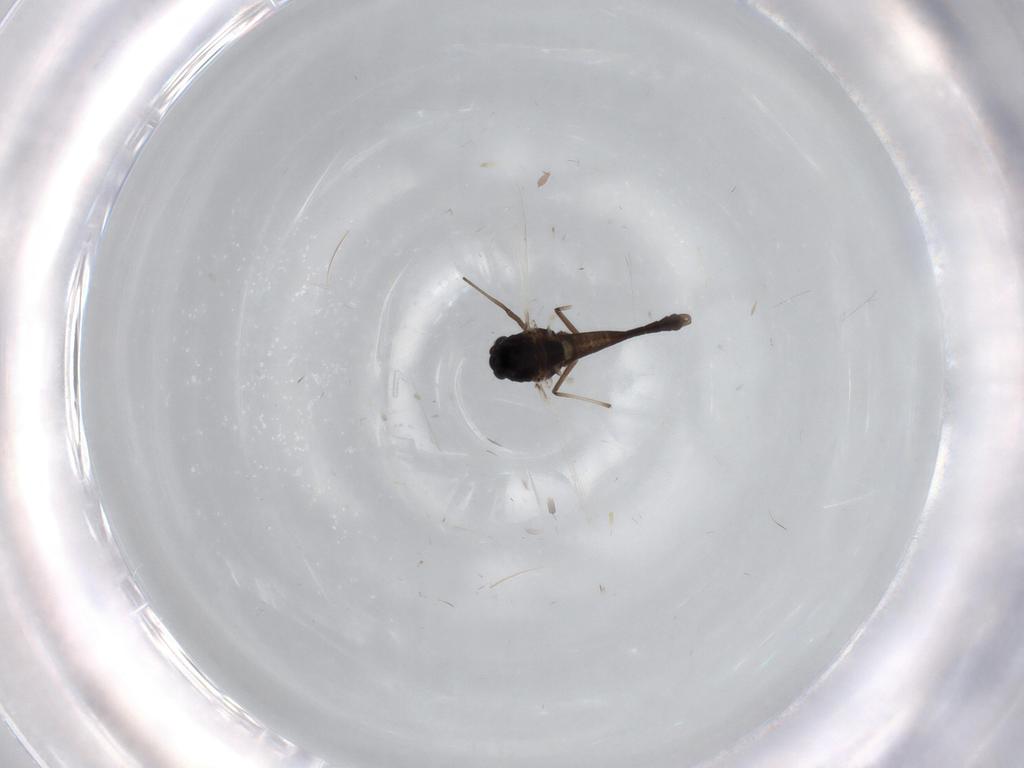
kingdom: Animalia
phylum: Arthropoda
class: Insecta
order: Diptera
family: Chironomidae
